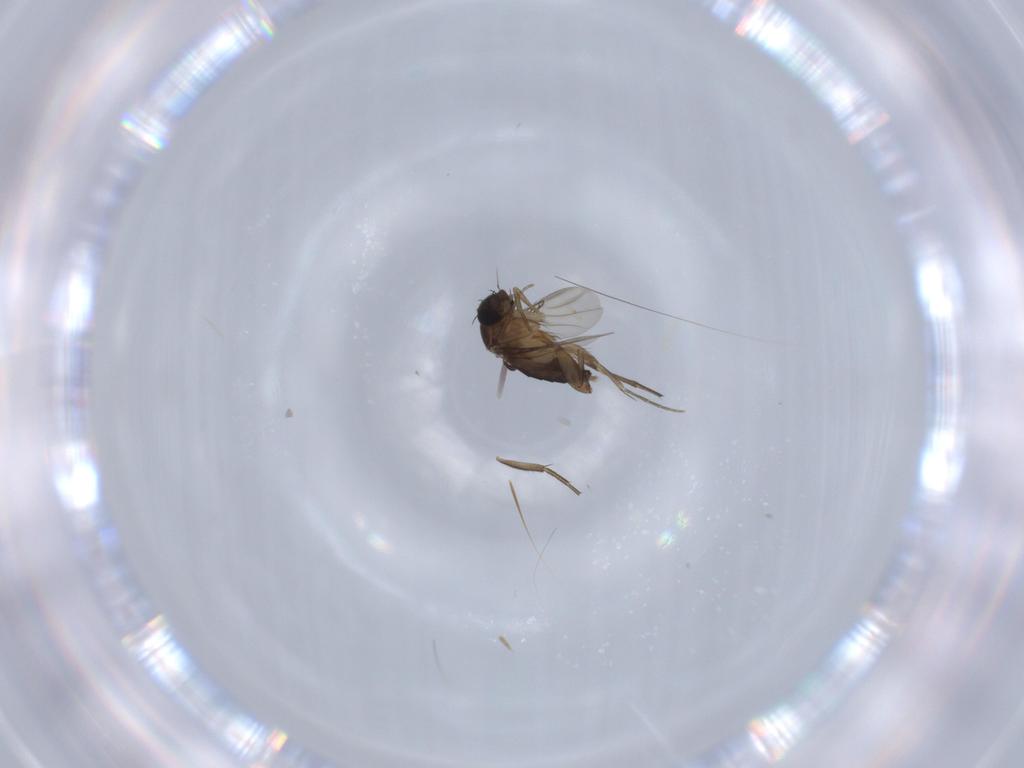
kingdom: Animalia
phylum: Arthropoda
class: Insecta
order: Diptera
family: Phoridae
